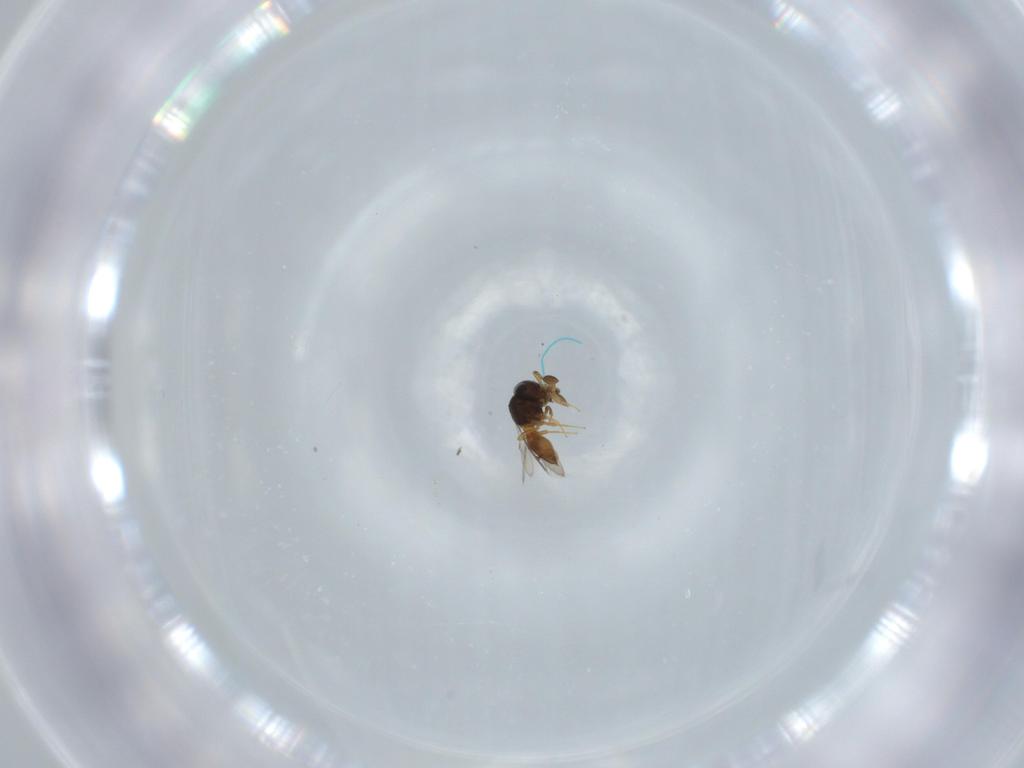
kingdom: Animalia
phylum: Arthropoda
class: Insecta
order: Hymenoptera
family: Scelionidae
